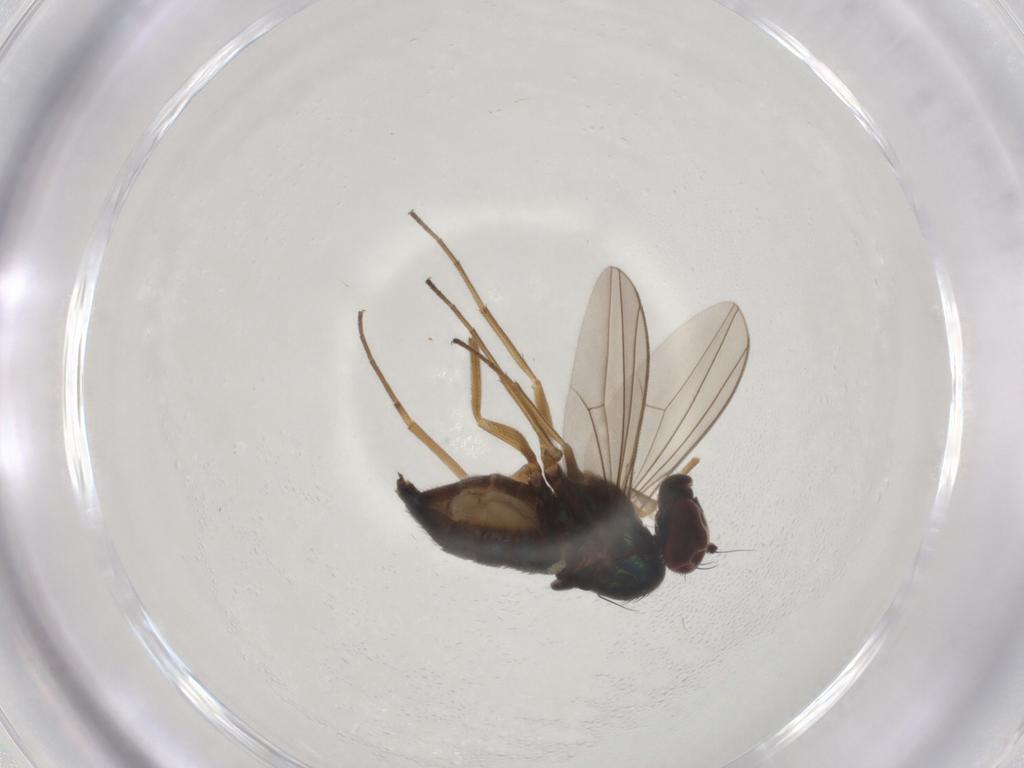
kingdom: Animalia
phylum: Arthropoda
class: Insecta
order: Diptera
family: Dolichopodidae
